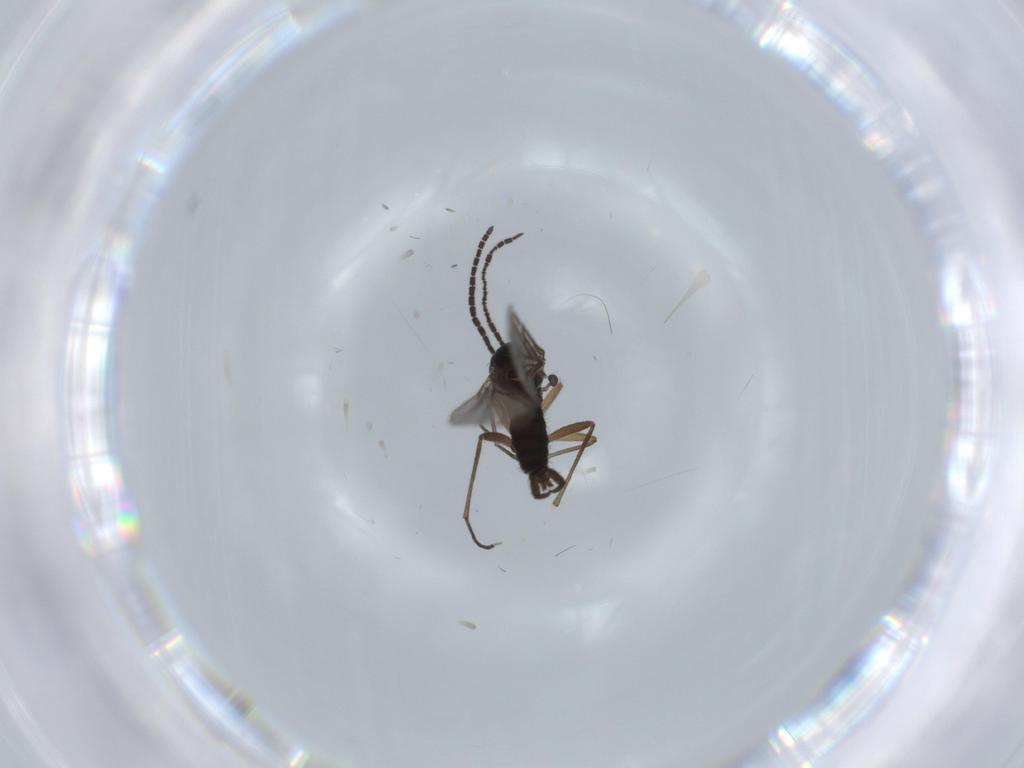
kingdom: Animalia
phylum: Arthropoda
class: Insecta
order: Diptera
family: Sciaridae
